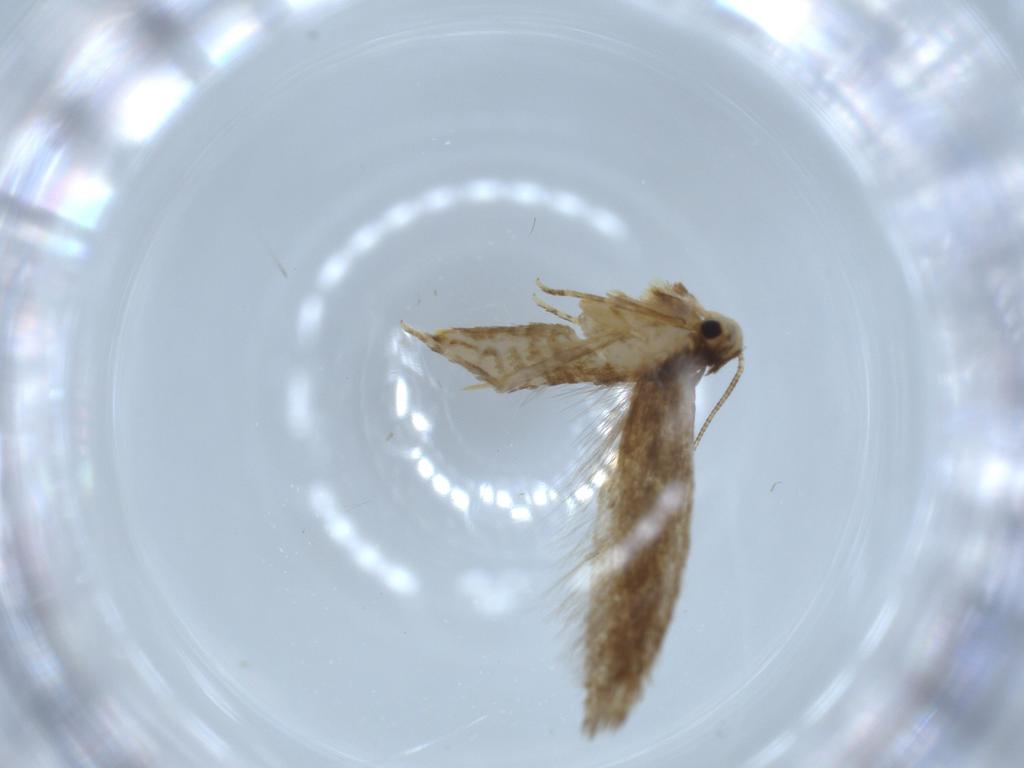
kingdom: Animalia
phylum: Arthropoda
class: Insecta
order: Lepidoptera
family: Tineidae
